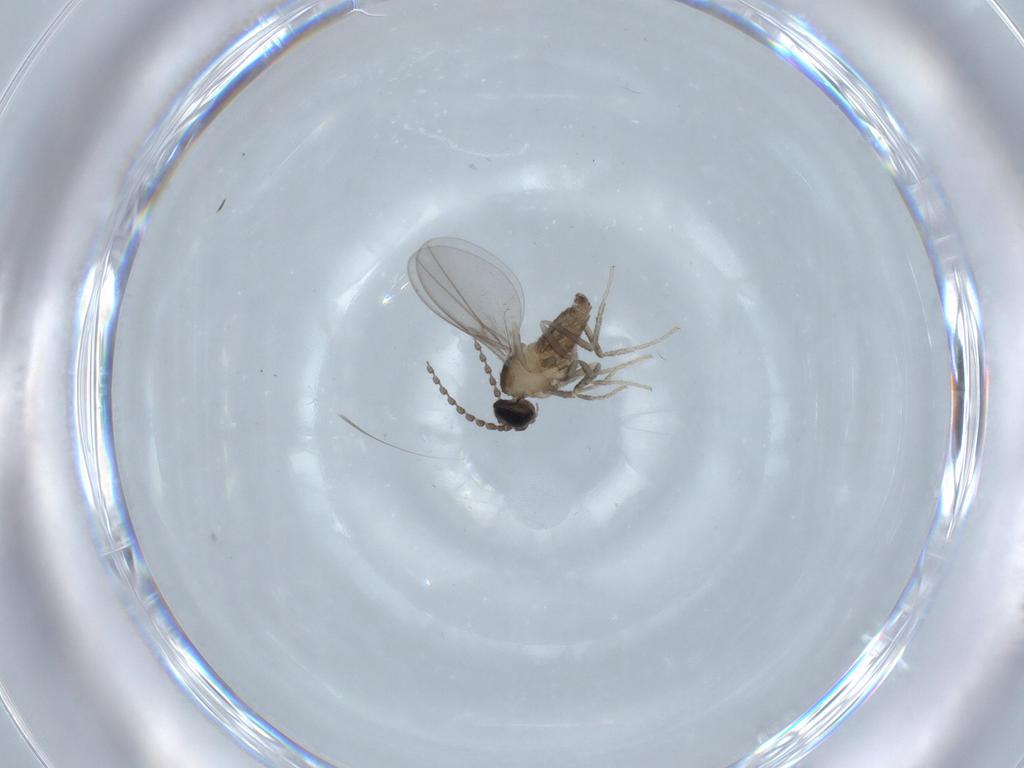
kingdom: Animalia
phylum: Arthropoda
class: Insecta
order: Diptera
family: Cecidomyiidae
